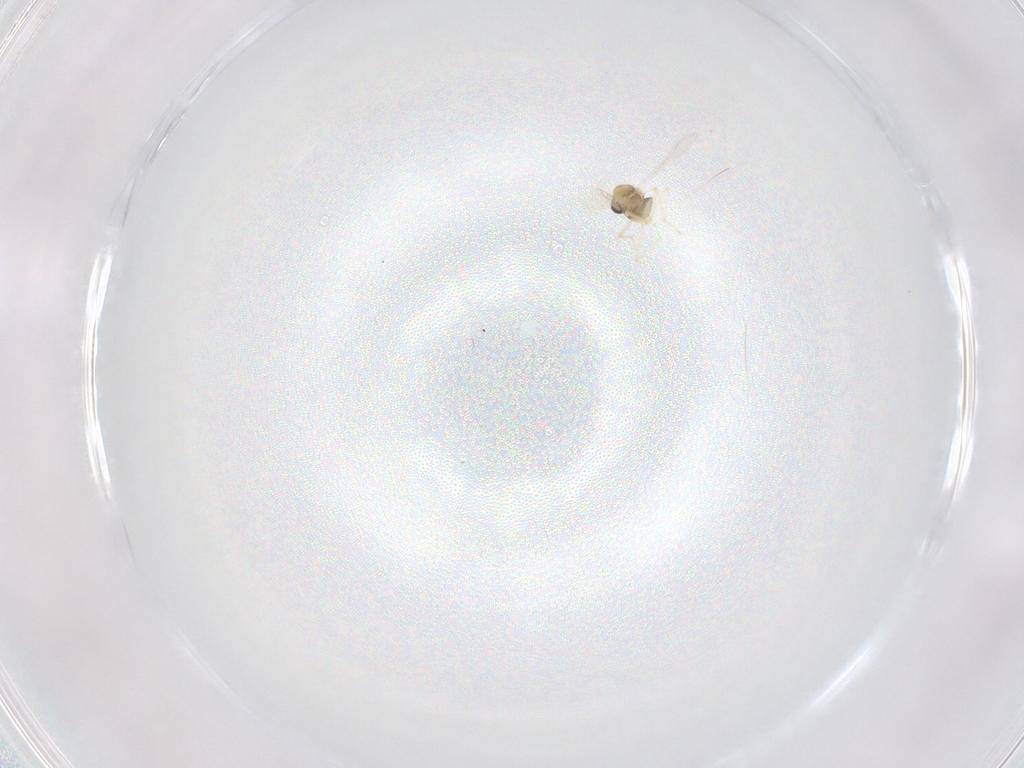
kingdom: Animalia
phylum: Arthropoda
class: Insecta
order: Diptera
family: Chironomidae
